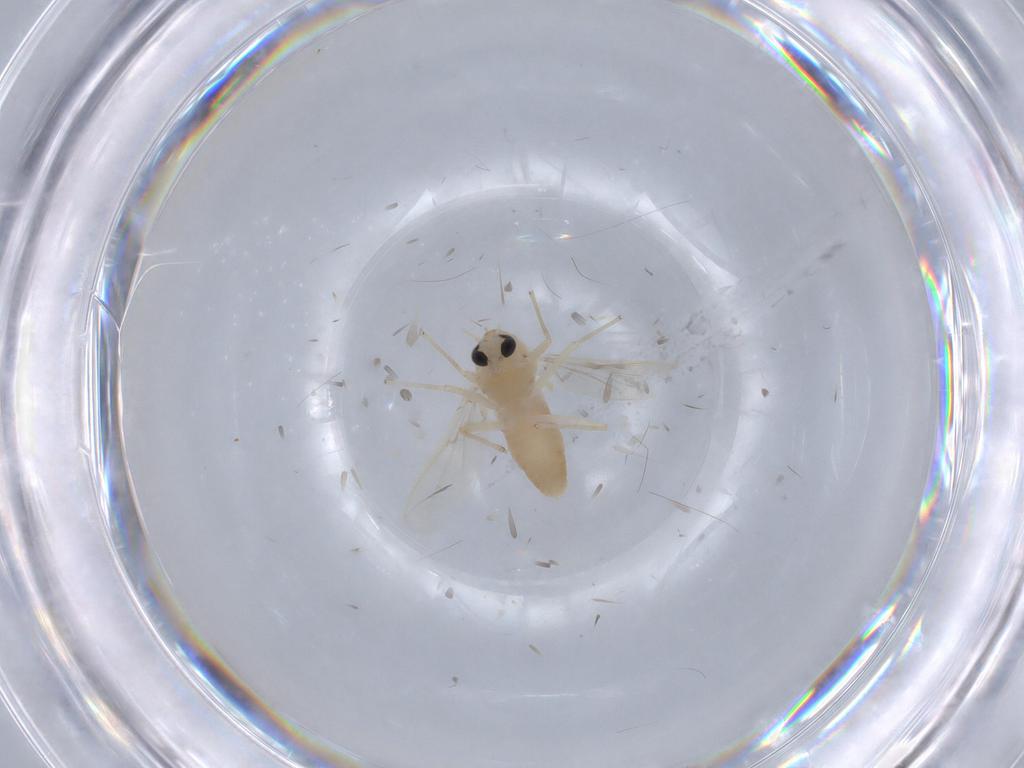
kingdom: Animalia
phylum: Arthropoda
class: Insecta
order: Diptera
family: Chironomidae
